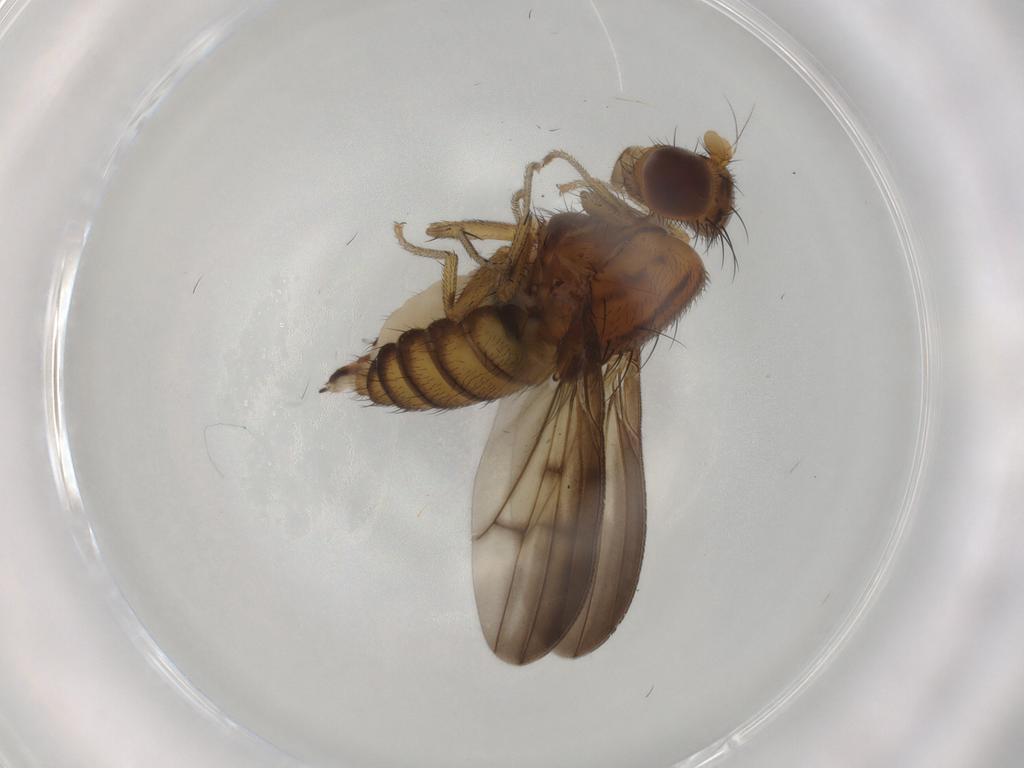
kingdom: Animalia
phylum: Arthropoda
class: Insecta
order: Diptera
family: Lauxaniidae
